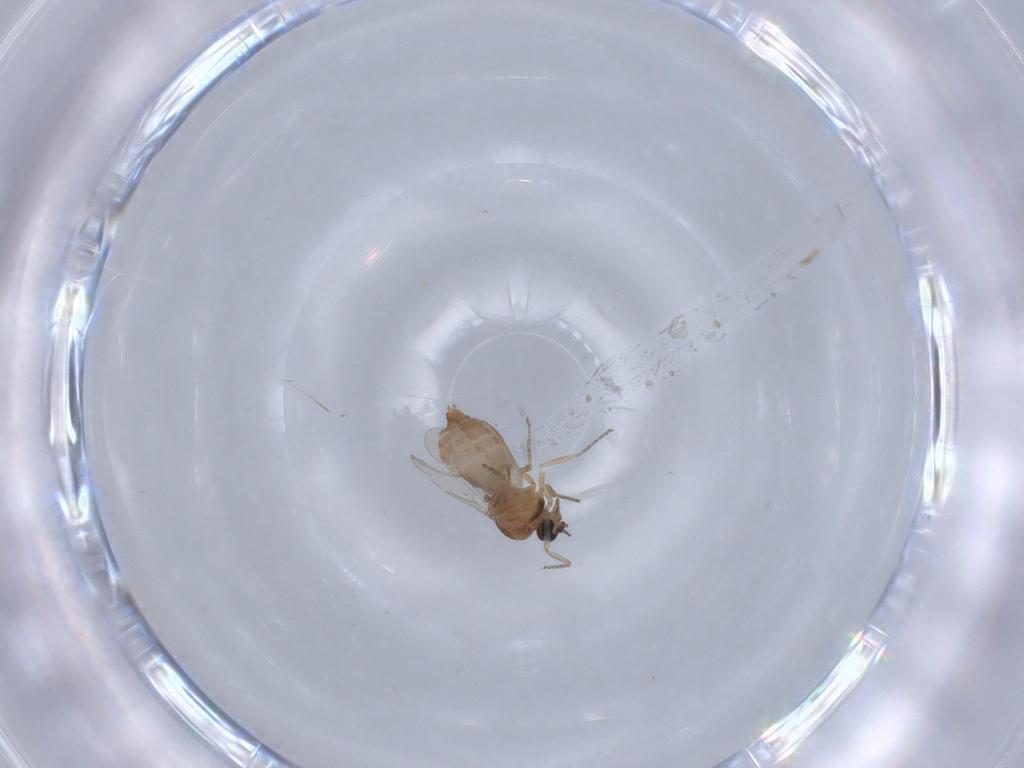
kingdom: Animalia
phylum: Arthropoda
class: Insecta
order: Diptera
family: Ceratopogonidae
